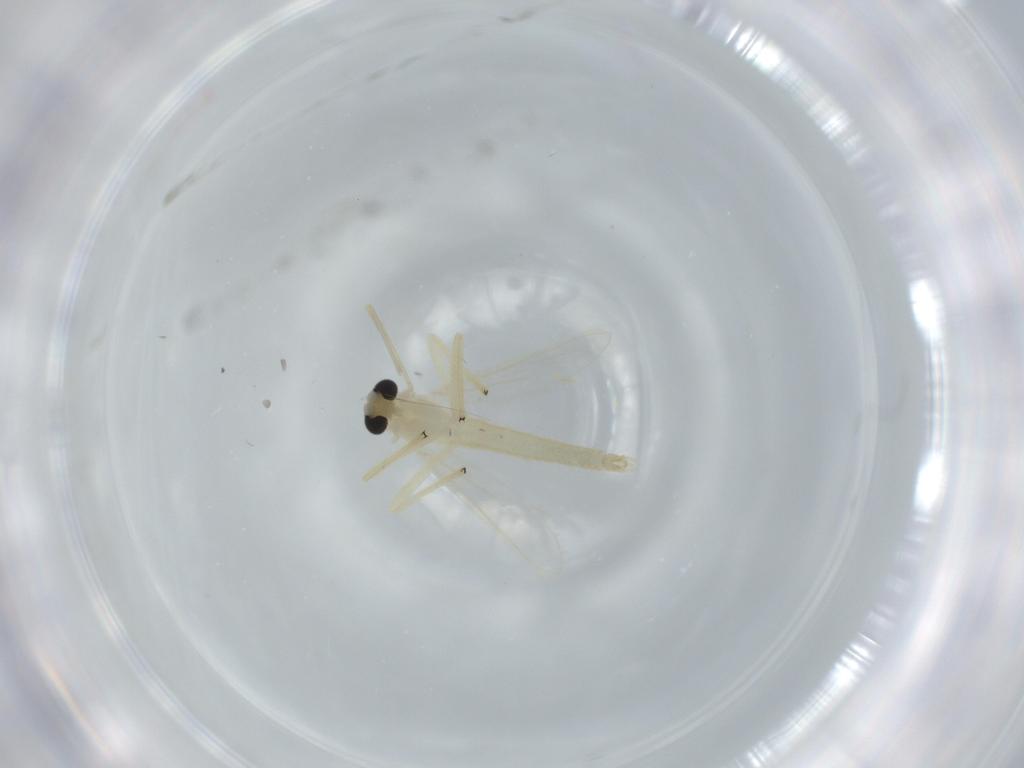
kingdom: Animalia
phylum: Arthropoda
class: Insecta
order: Diptera
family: Chironomidae
